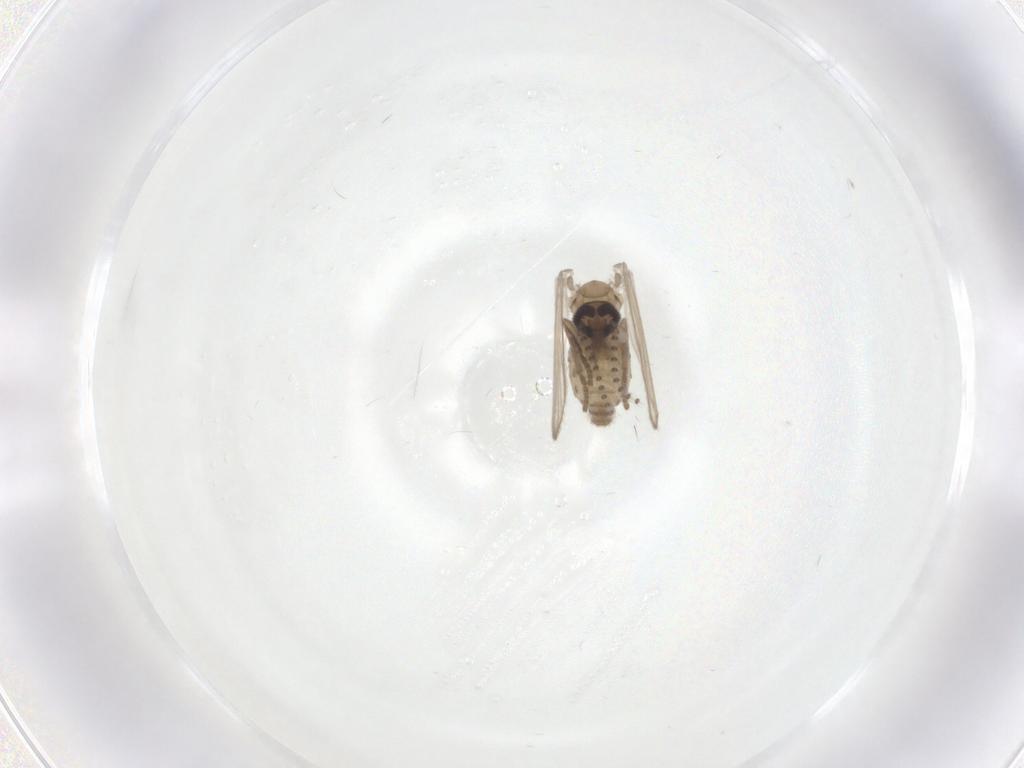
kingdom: Animalia
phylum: Arthropoda
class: Insecta
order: Diptera
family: Psychodidae
